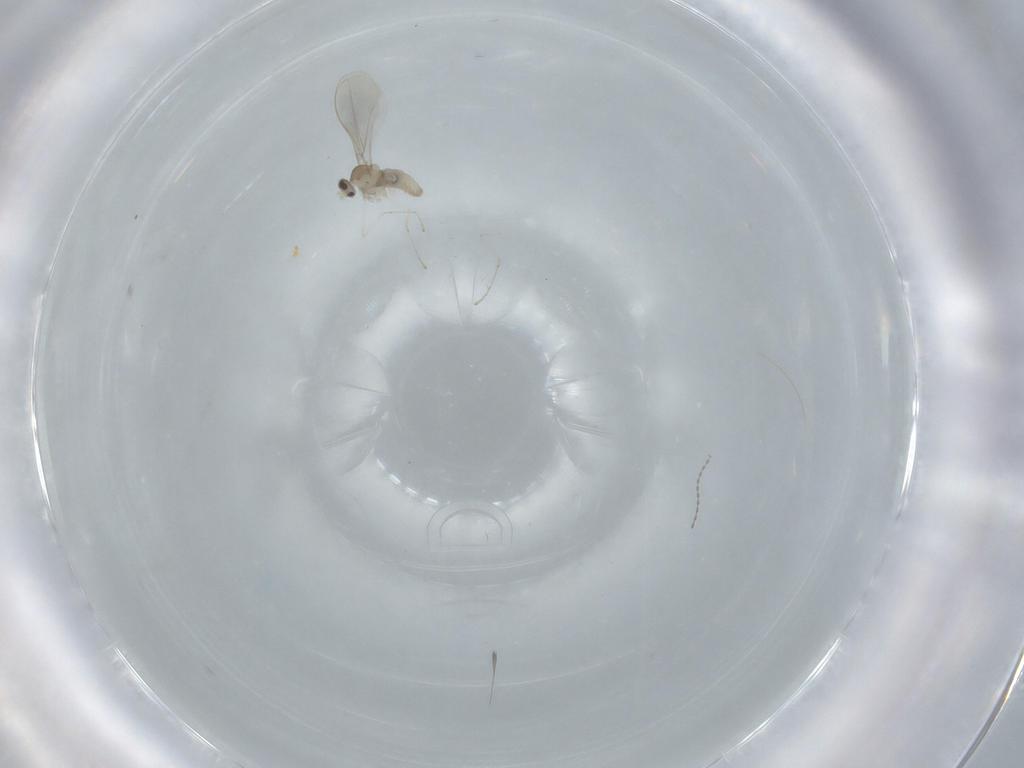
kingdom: Animalia
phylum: Arthropoda
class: Insecta
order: Diptera
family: Cecidomyiidae
